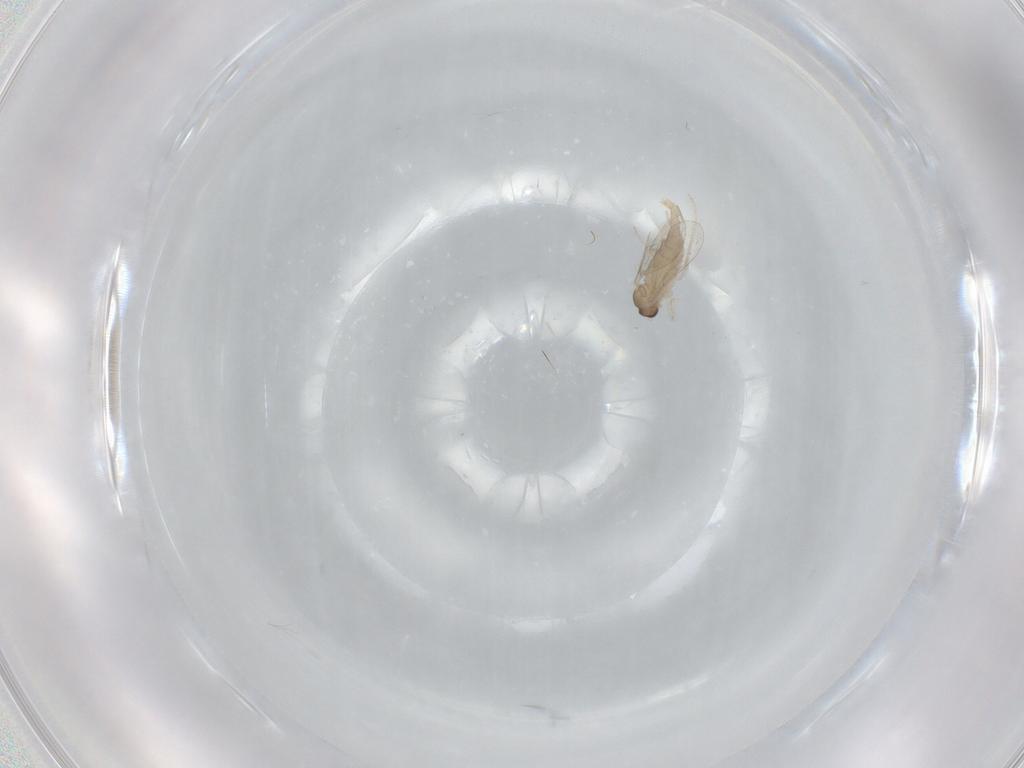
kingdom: Animalia
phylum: Arthropoda
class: Insecta
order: Diptera
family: Cecidomyiidae
